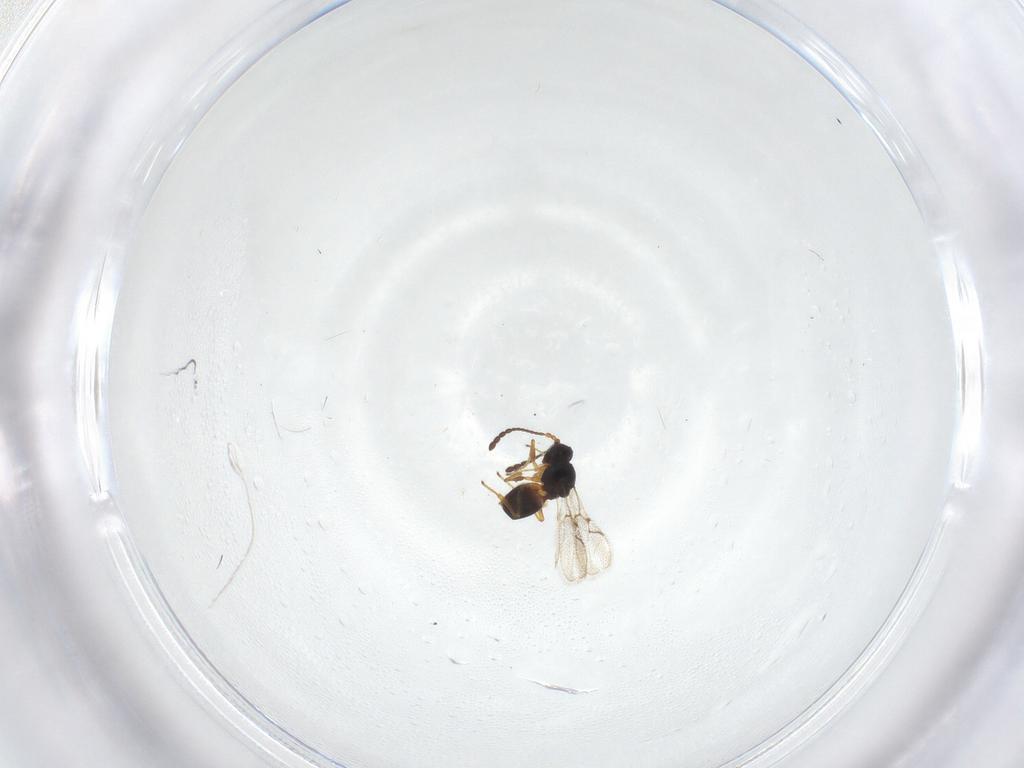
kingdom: Animalia
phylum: Arthropoda
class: Insecta
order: Hymenoptera
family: Figitidae
